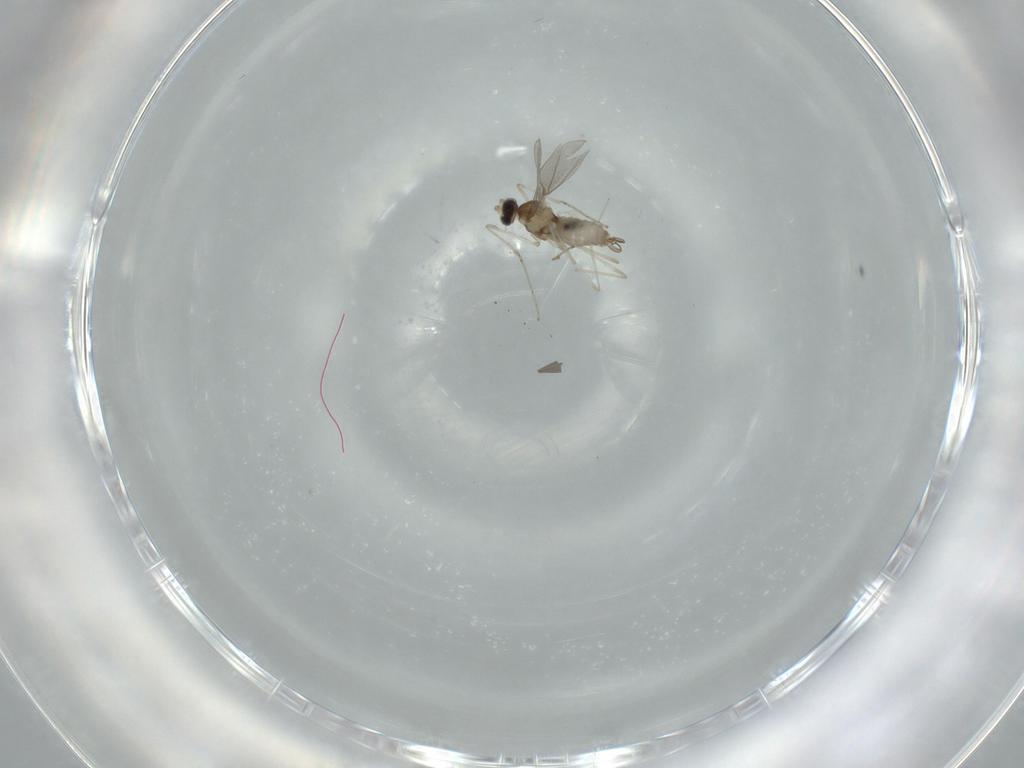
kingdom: Animalia
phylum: Arthropoda
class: Insecta
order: Diptera
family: Cecidomyiidae
